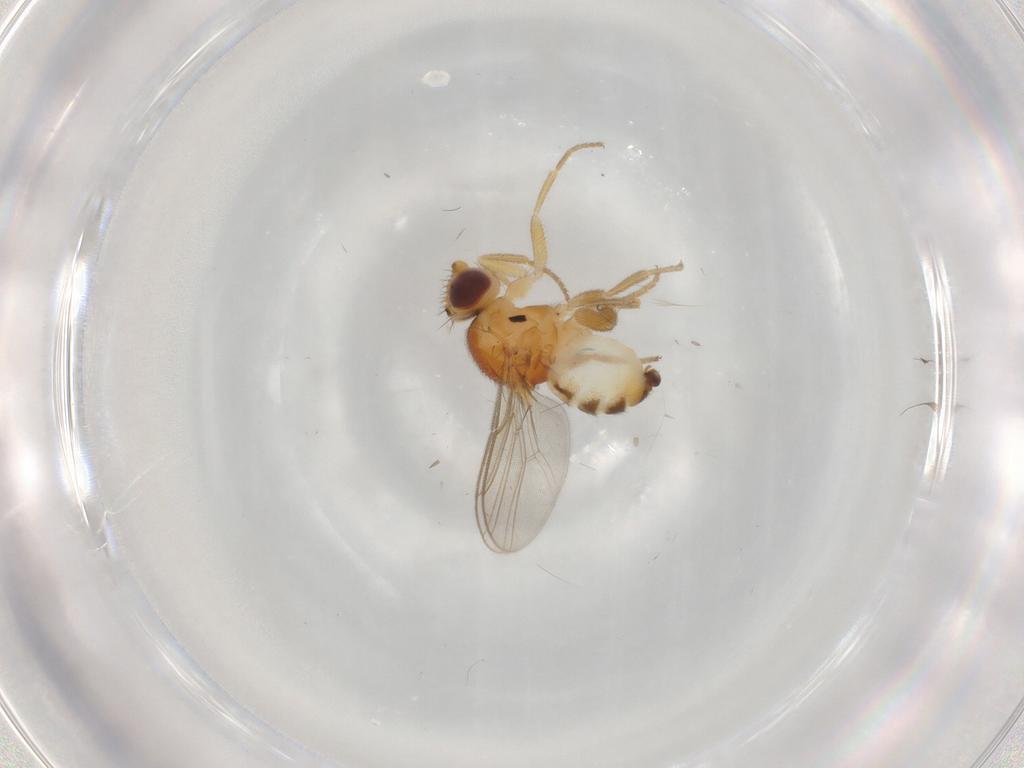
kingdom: Animalia
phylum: Arthropoda
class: Insecta
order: Diptera
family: Chloropidae
